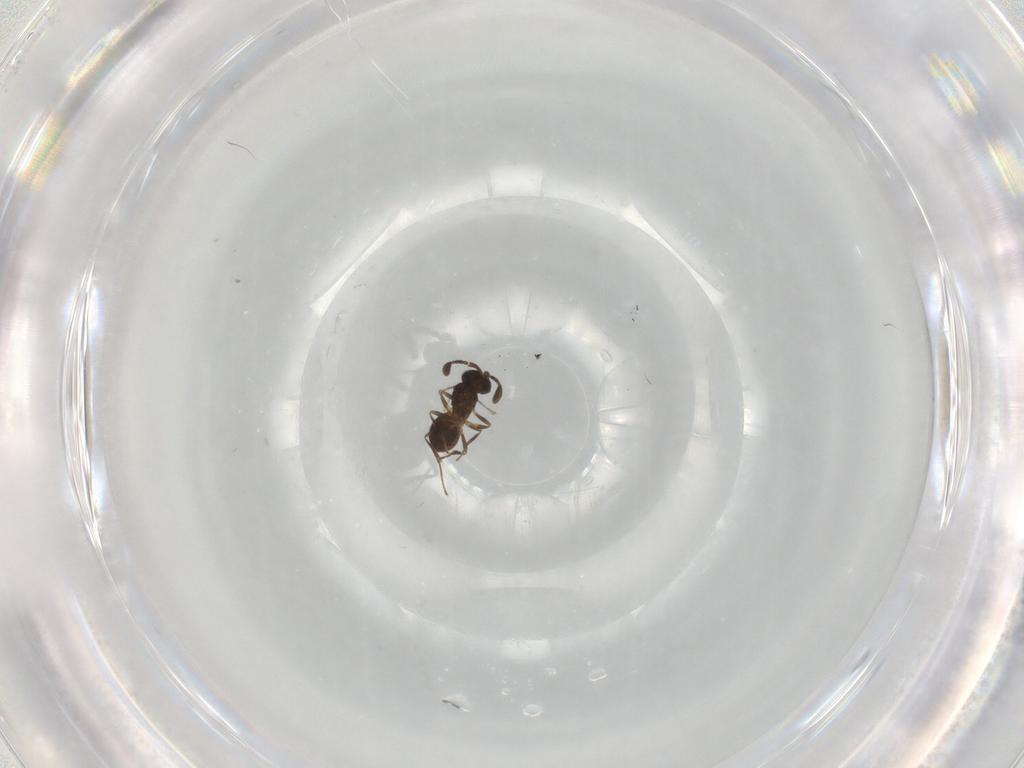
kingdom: Animalia
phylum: Arthropoda
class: Insecta
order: Hymenoptera
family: Scelionidae
